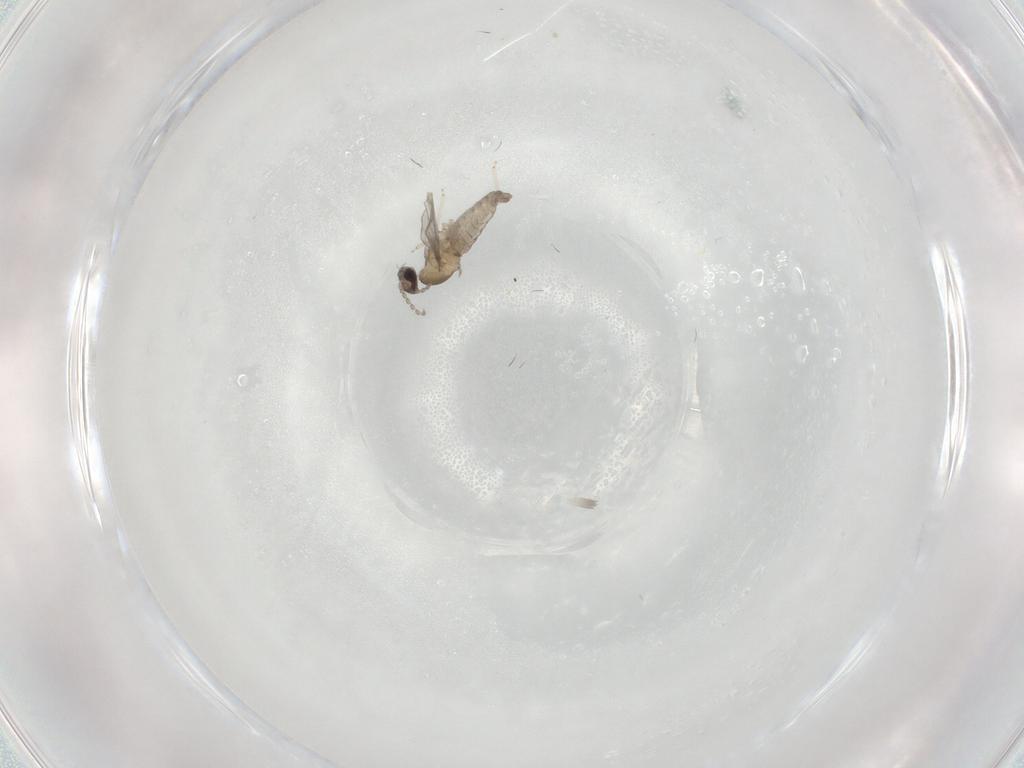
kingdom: Animalia
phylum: Arthropoda
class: Insecta
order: Diptera
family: Cecidomyiidae
